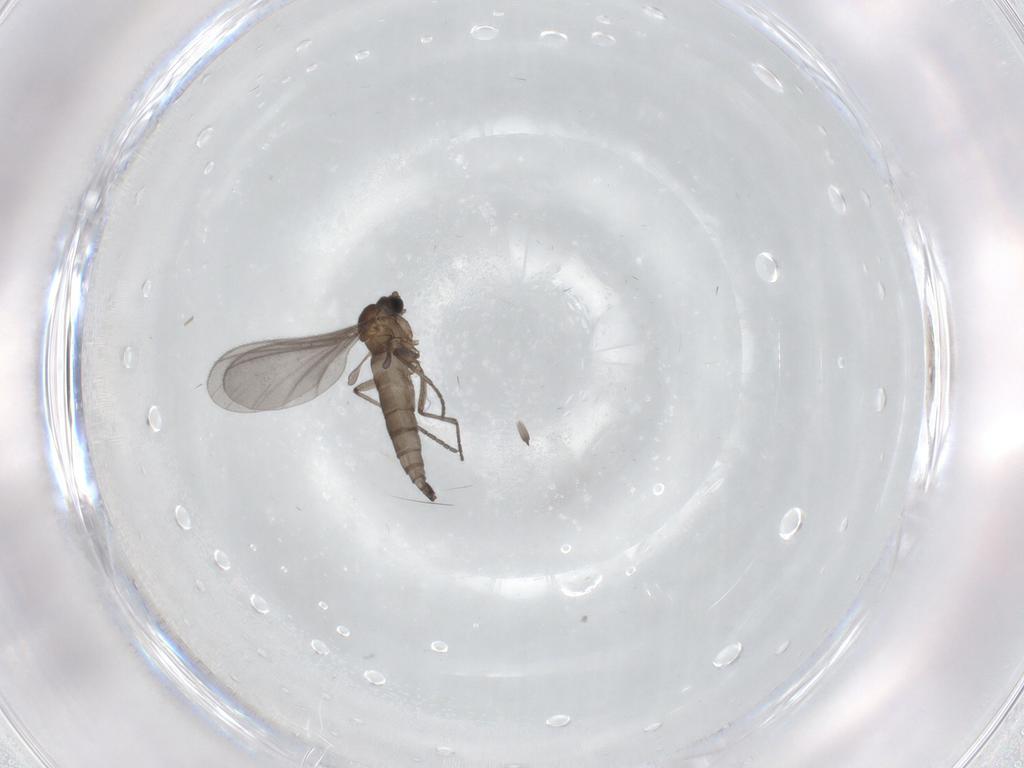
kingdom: Animalia
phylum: Arthropoda
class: Insecta
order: Diptera
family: Sciaridae
